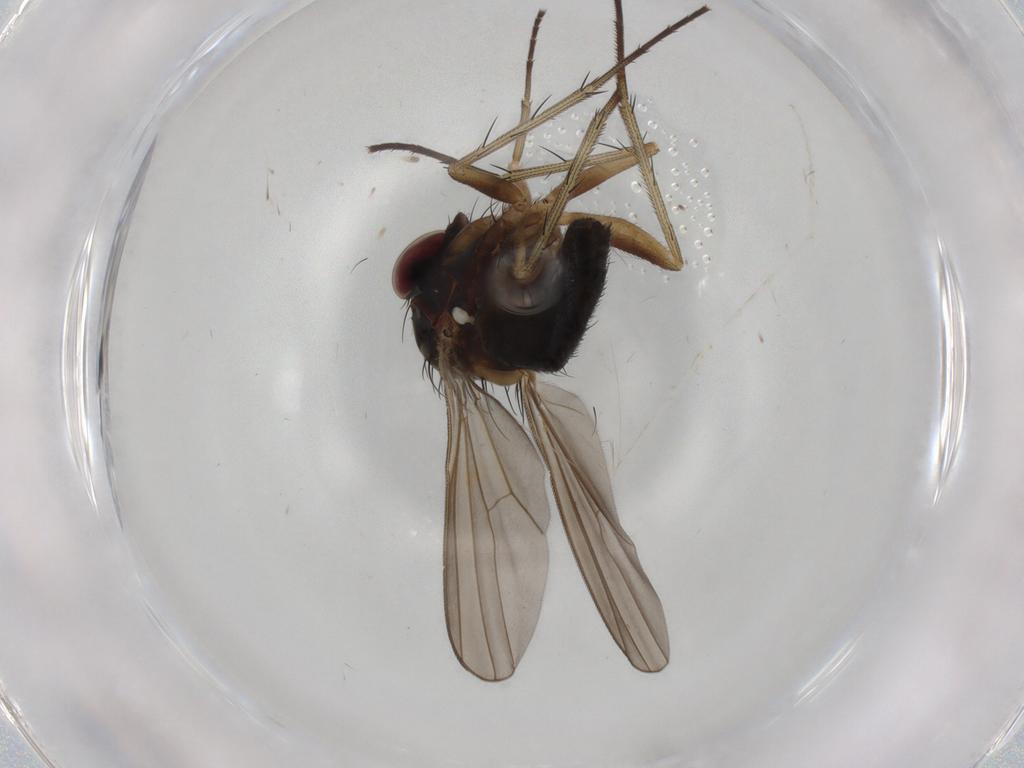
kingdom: Animalia
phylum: Arthropoda
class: Insecta
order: Diptera
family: Dolichopodidae
